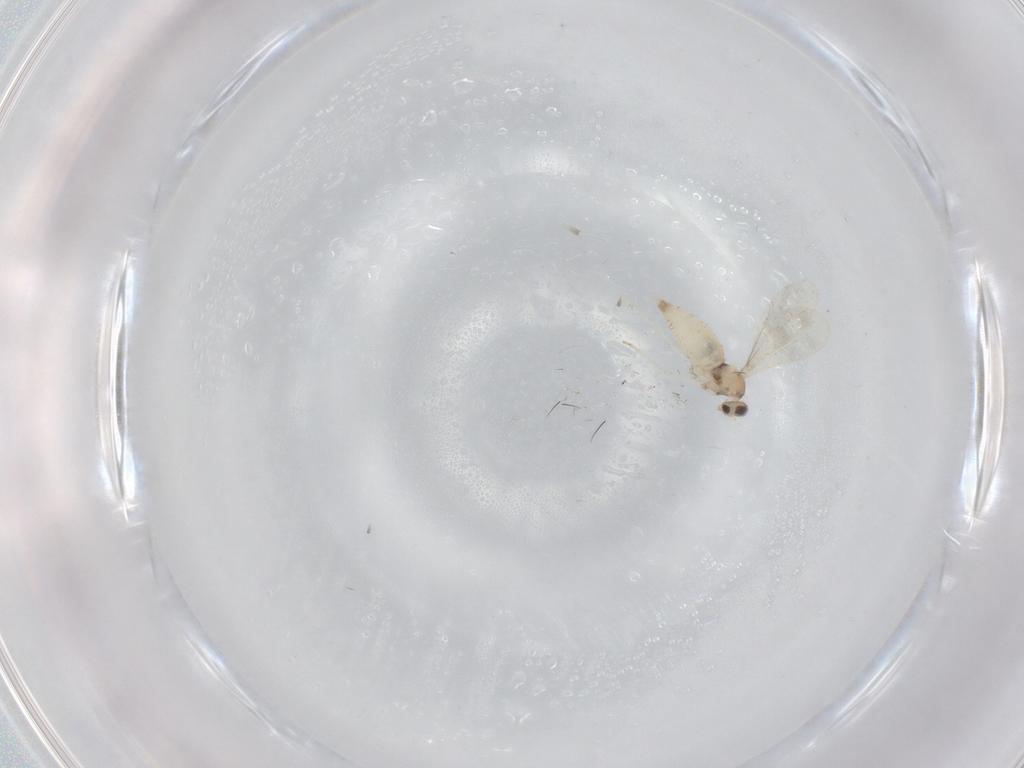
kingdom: Animalia
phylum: Arthropoda
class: Insecta
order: Diptera
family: Cecidomyiidae
